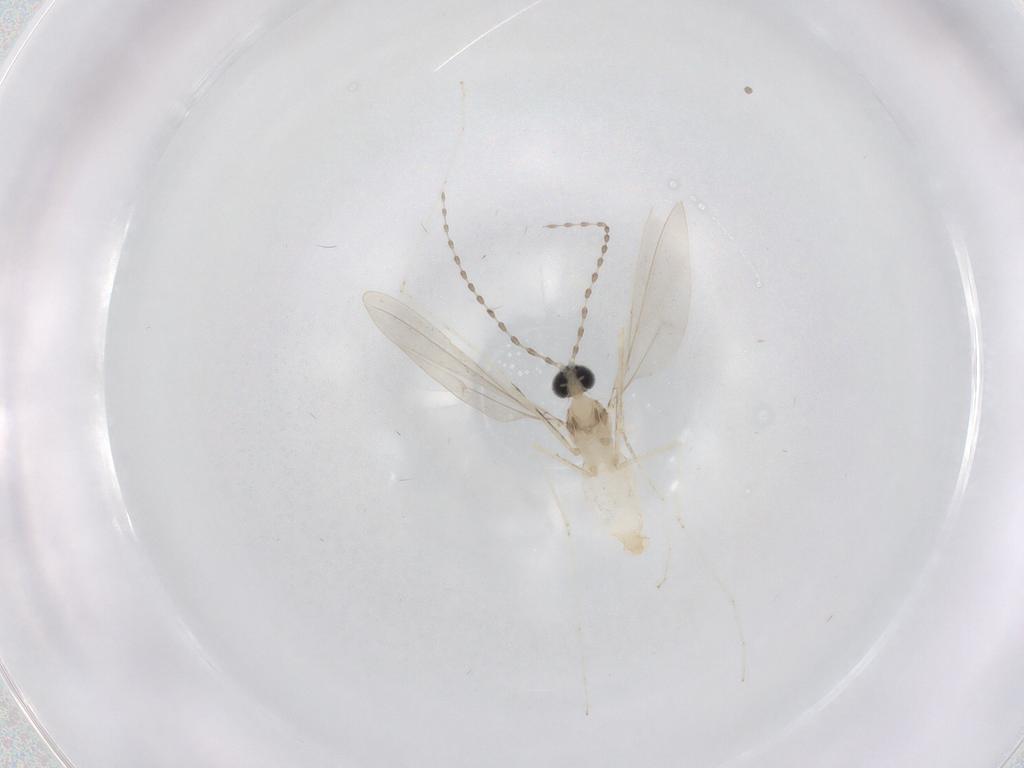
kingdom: Animalia
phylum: Arthropoda
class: Insecta
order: Diptera
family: Cecidomyiidae
